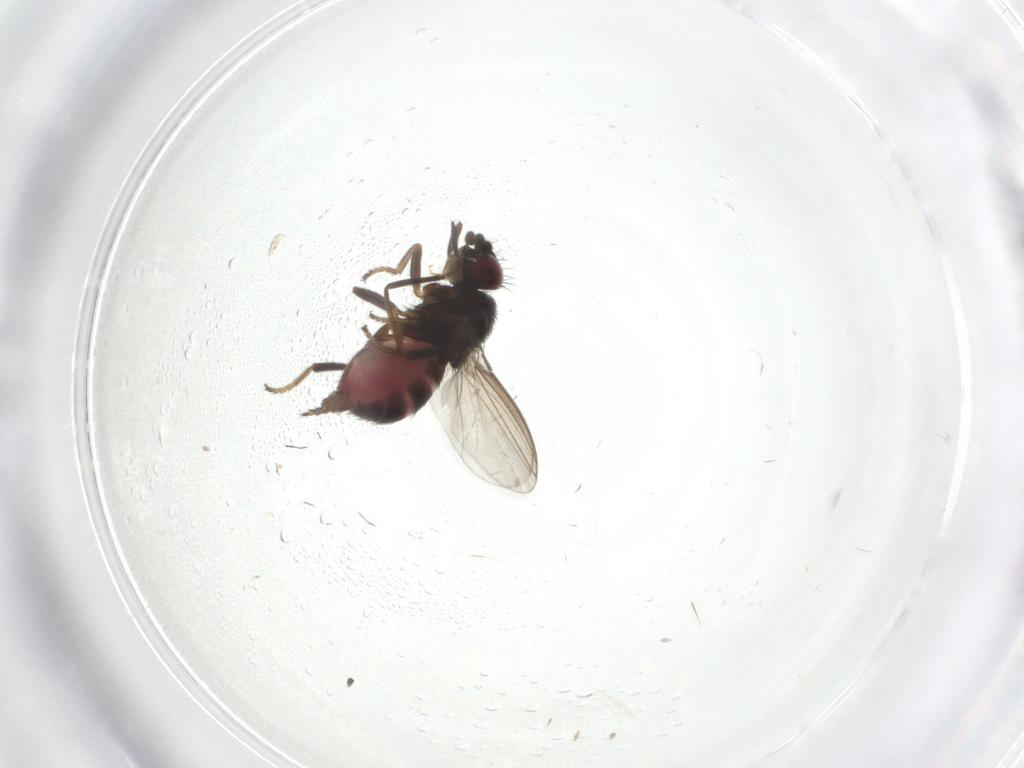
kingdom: Animalia
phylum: Arthropoda
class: Insecta
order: Diptera
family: Milichiidae
